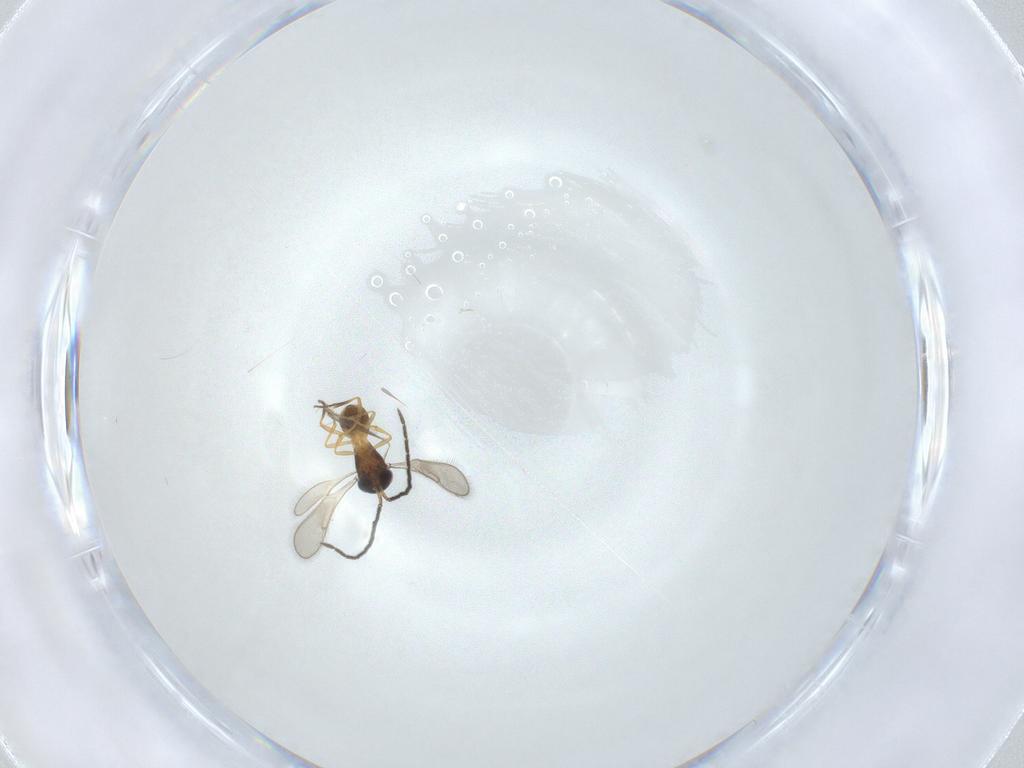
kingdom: Animalia
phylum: Arthropoda
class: Insecta
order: Hymenoptera
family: Scelionidae
